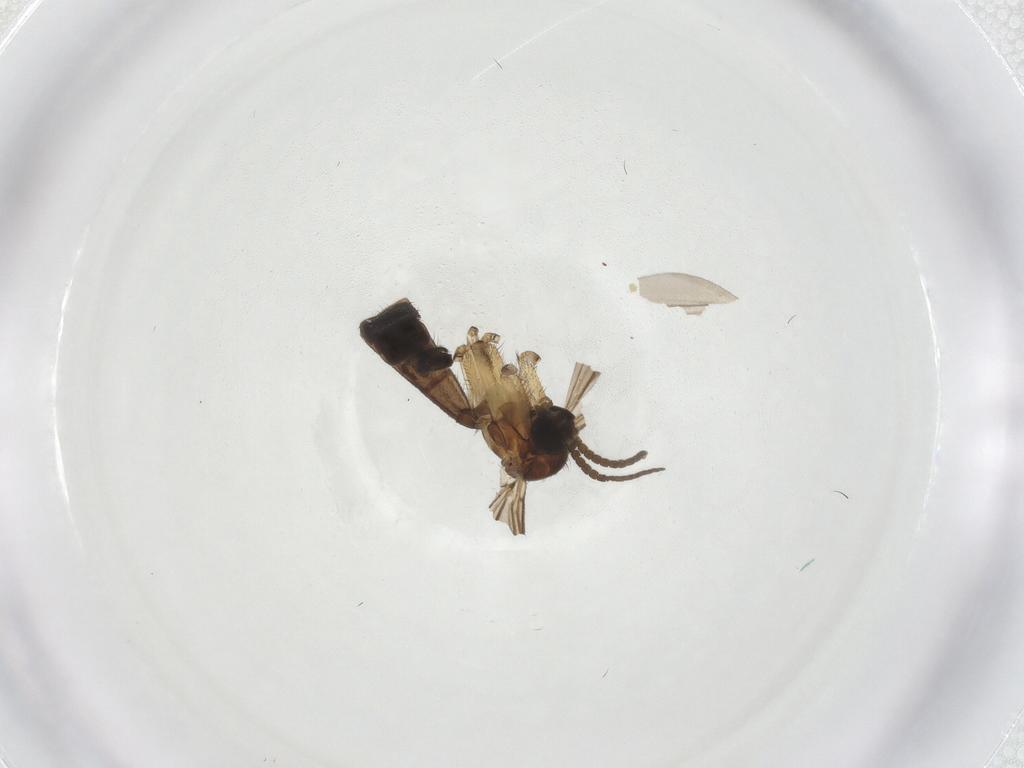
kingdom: Animalia
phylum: Arthropoda
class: Insecta
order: Diptera
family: Keroplatidae
